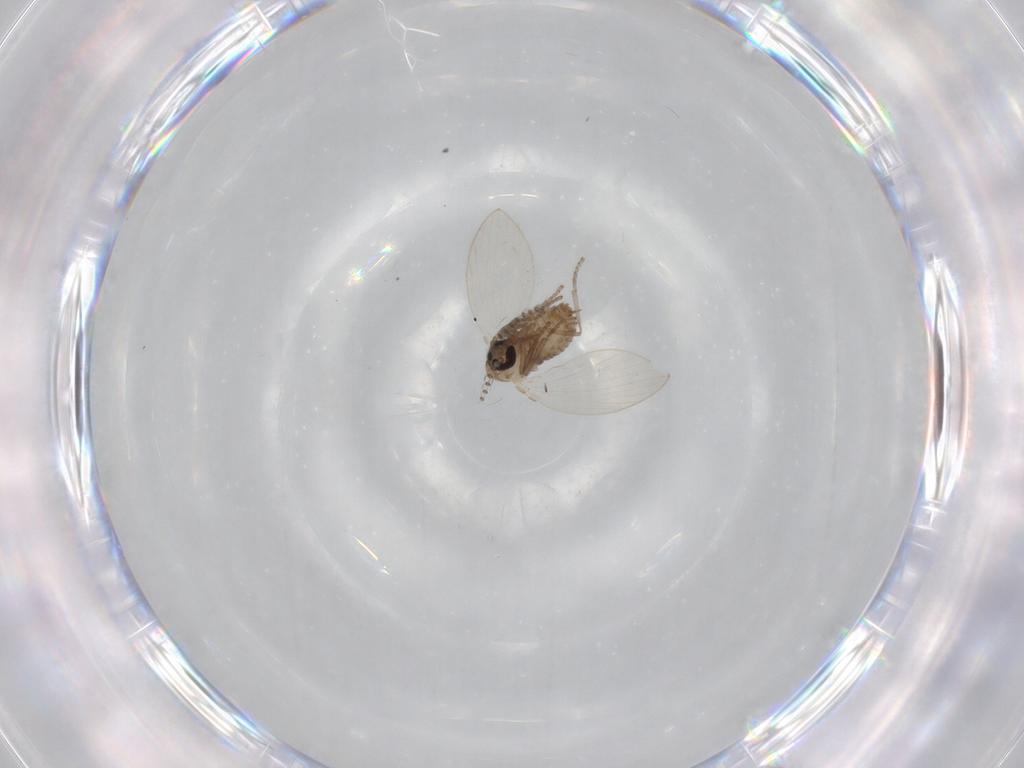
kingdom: Animalia
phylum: Arthropoda
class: Insecta
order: Diptera
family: Psychodidae
